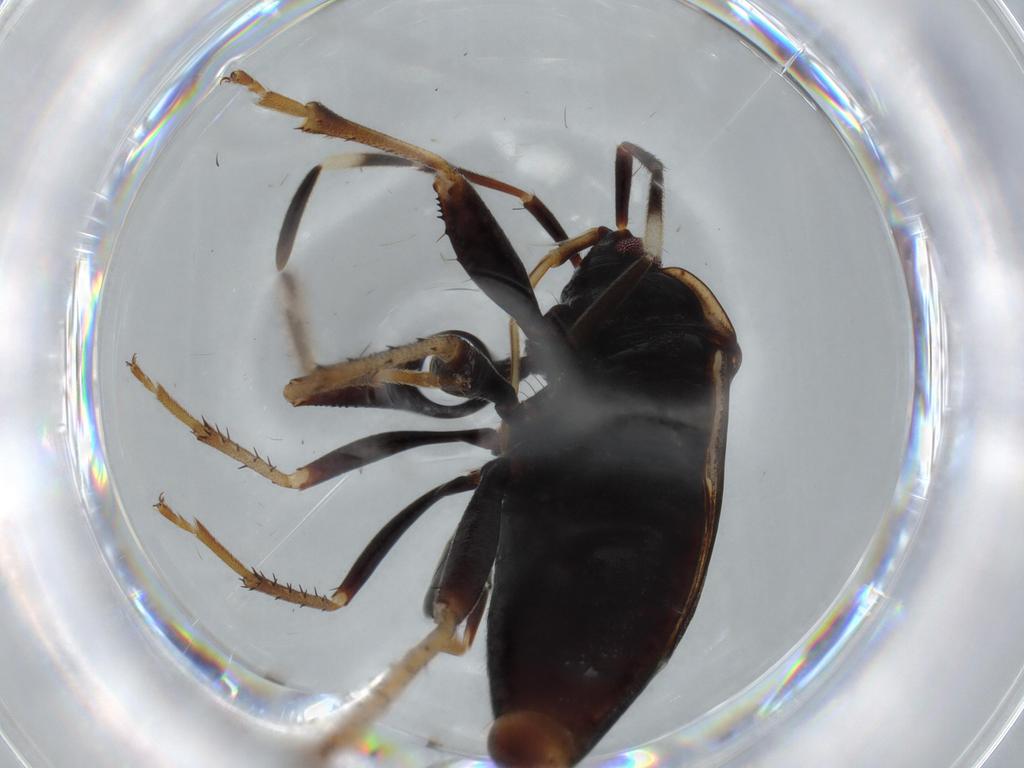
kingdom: Animalia
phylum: Arthropoda
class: Insecta
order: Hemiptera
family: Rhyparochromidae
